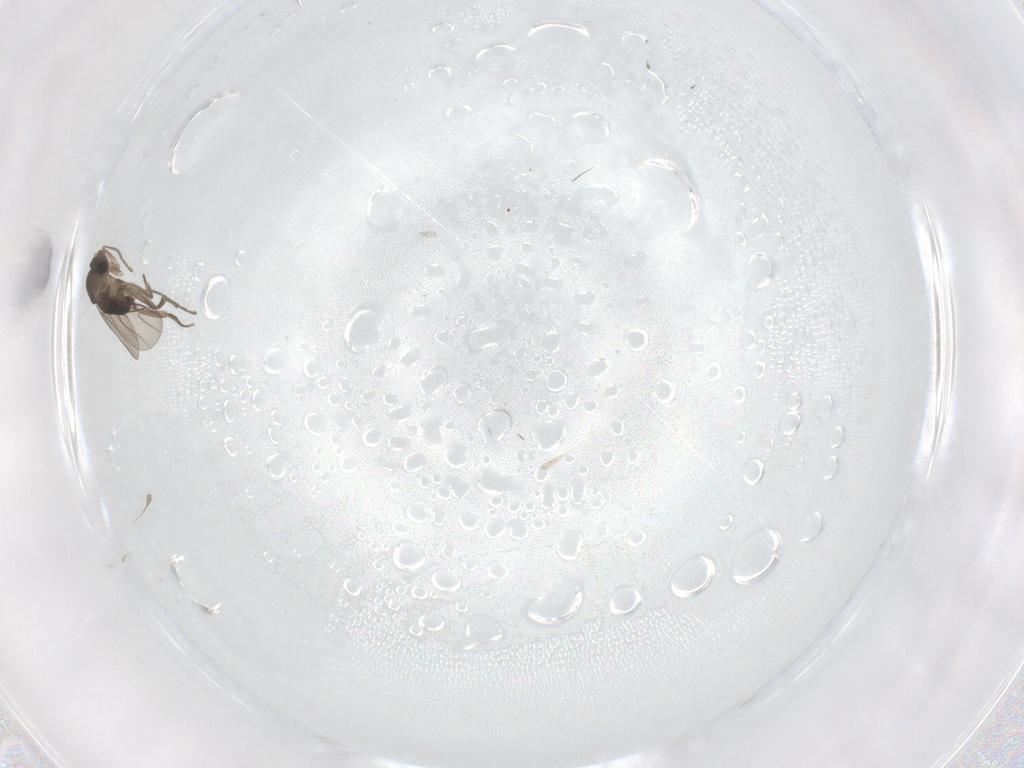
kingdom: Animalia
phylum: Arthropoda
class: Insecta
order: Diptera
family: Phoridae
